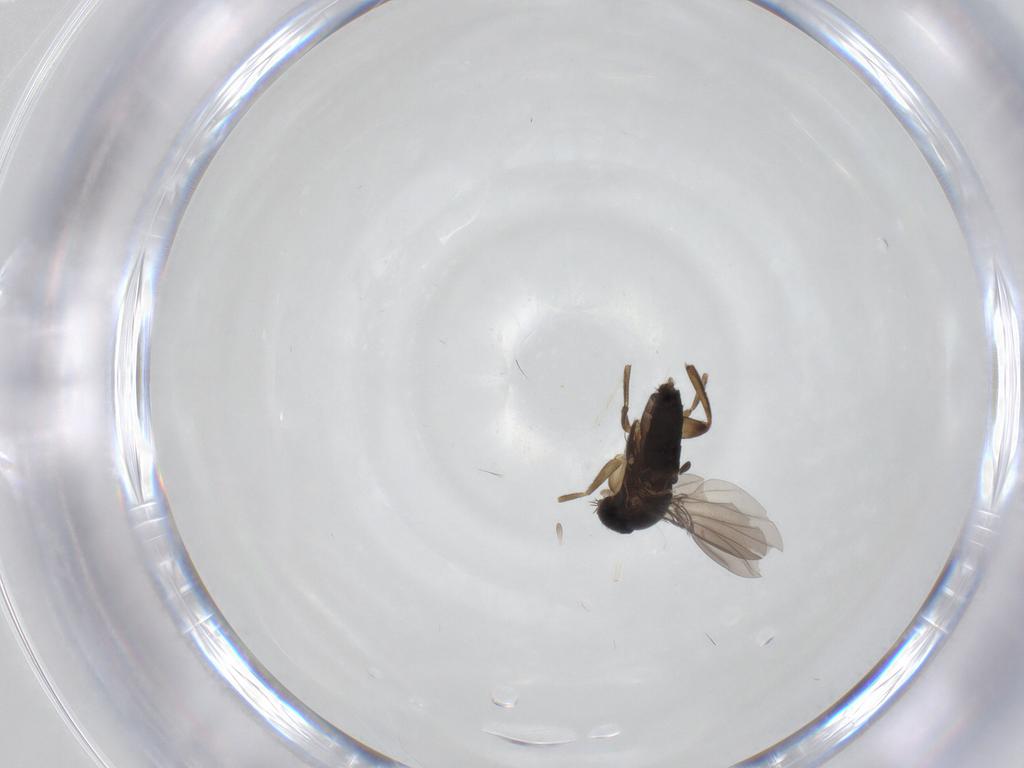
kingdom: Animalia
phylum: Arthropoda
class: Insecta
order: Diptera
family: Phoridae
